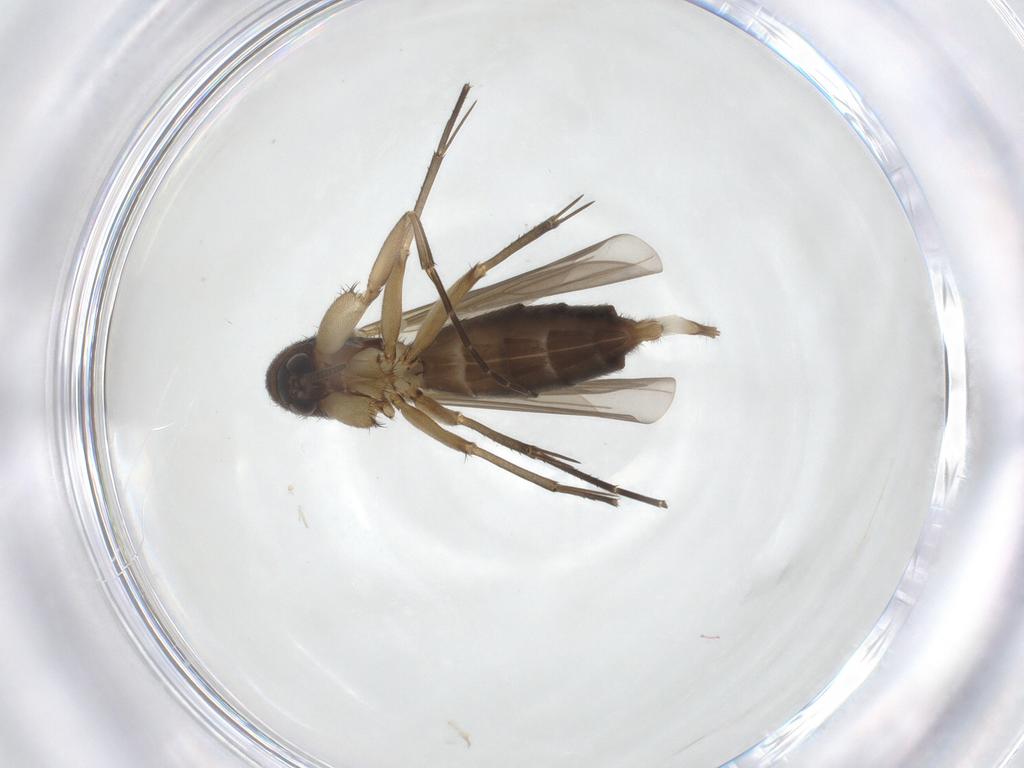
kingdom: Animalia
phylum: Arthropoda
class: Insecta
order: Diptera
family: Mycetophilidae
